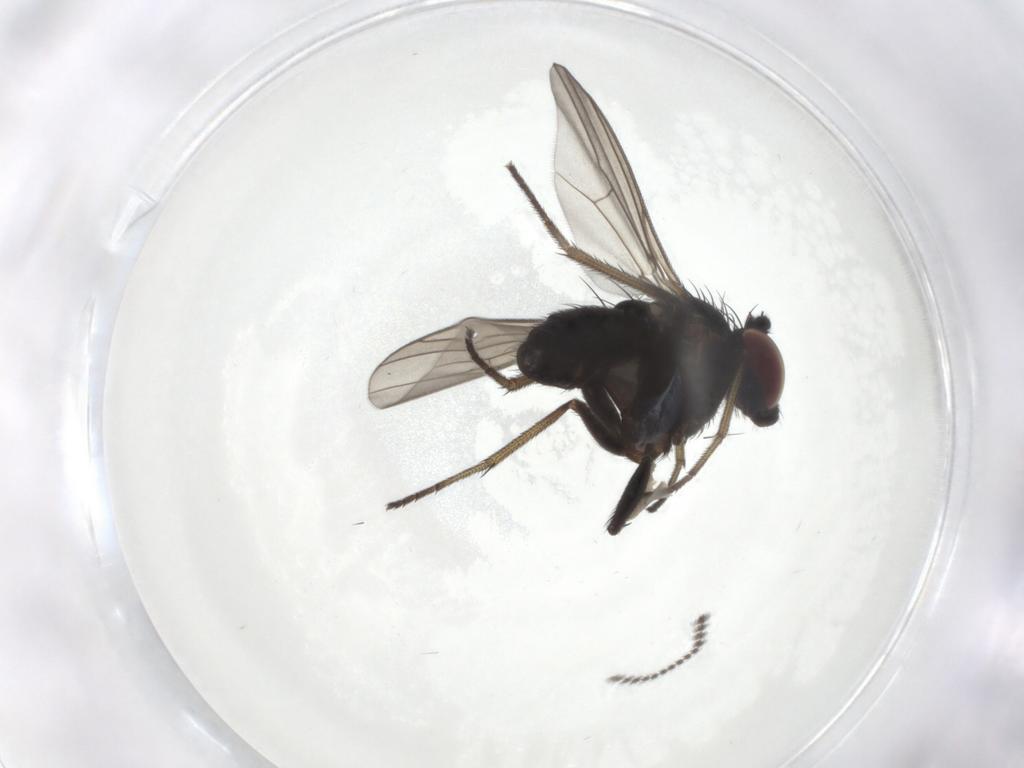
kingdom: Animalia
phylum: Arthropoda
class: Insecta
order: Diptera
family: Dolichopodidae
